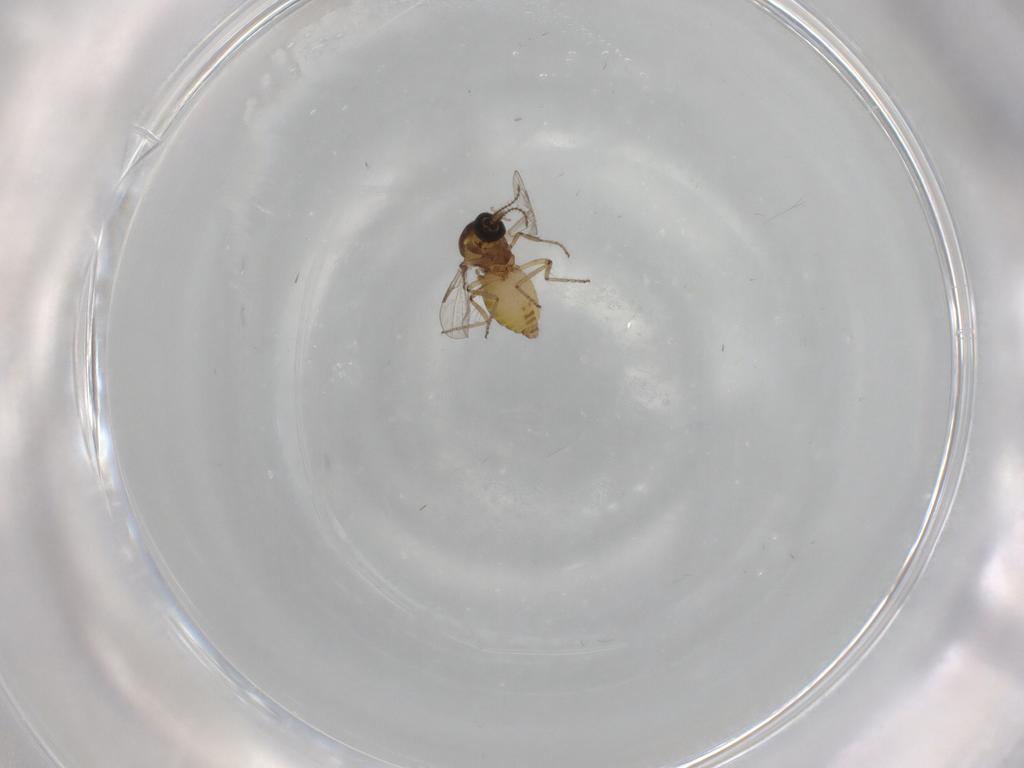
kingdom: Animalia
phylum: Arthropoda
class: Insecta
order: Diptera
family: Ceratopogonidae
